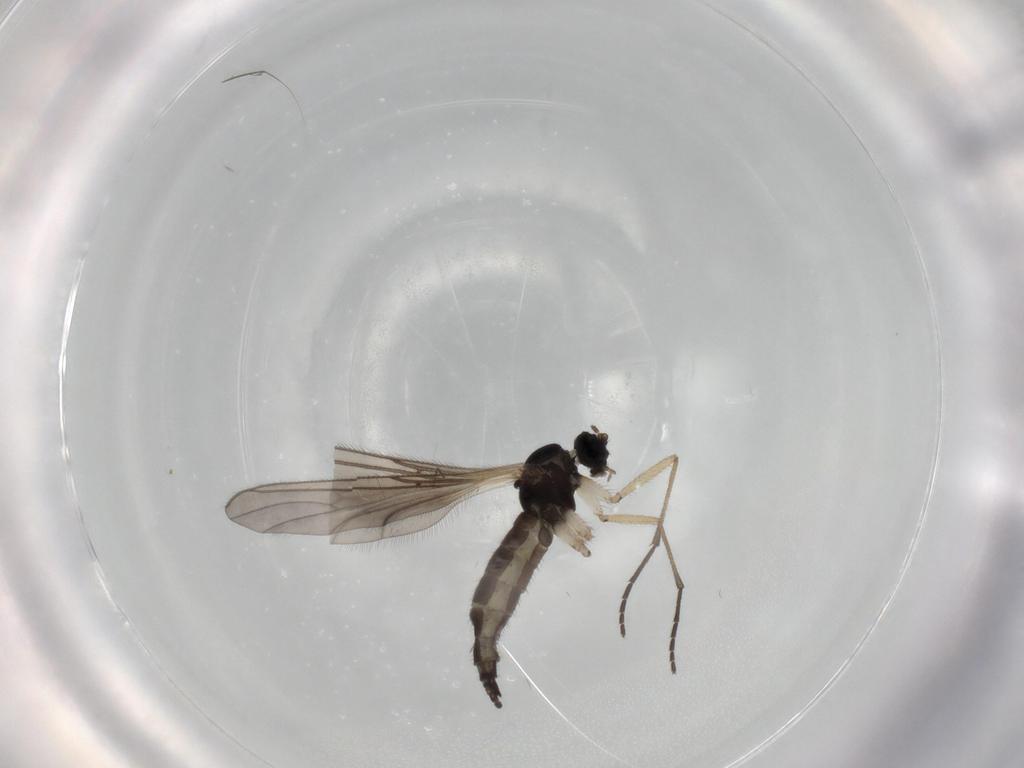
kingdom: Animalia
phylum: Arthropoda
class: Insecta
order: Diptera
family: Sciaridae
